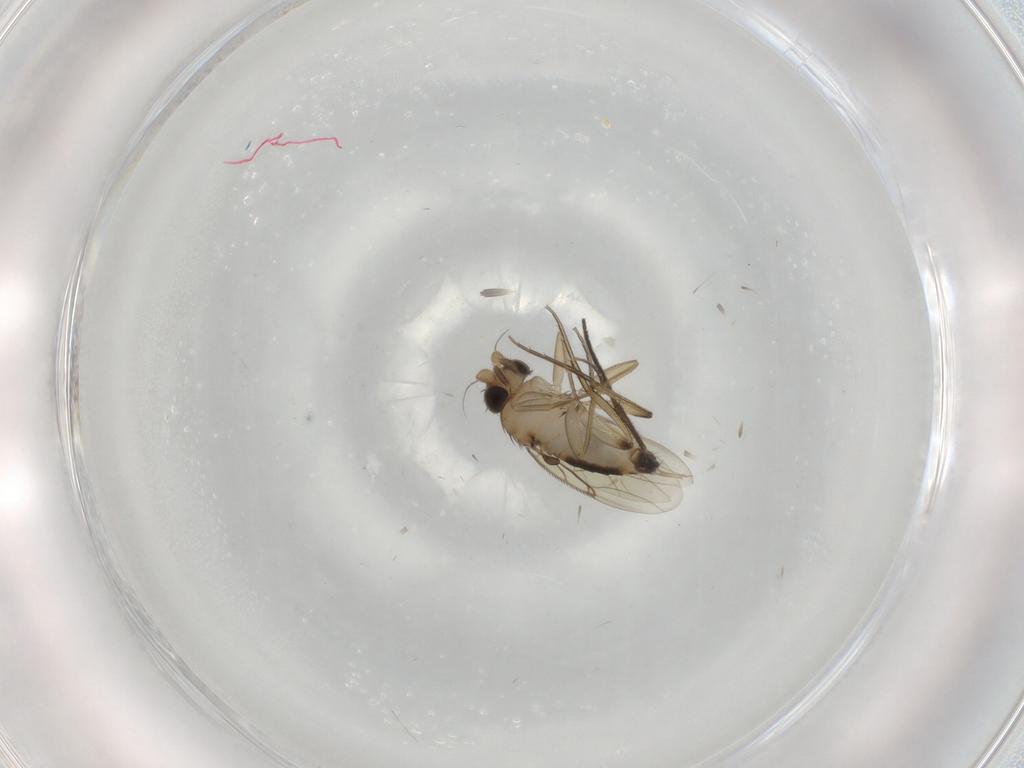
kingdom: Animalia
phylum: Arthropoda
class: Insecta
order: Diptera
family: Phoridae
